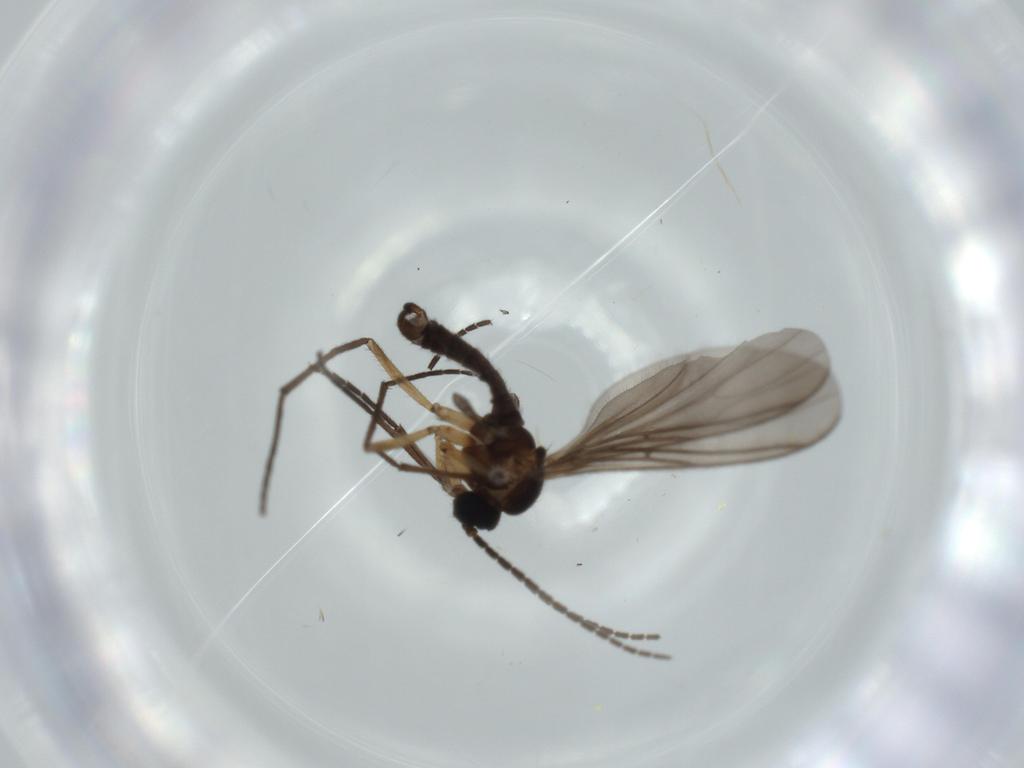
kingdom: Animalia
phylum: Arthropoda
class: Insecta
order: Diptera
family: Sciaridae
